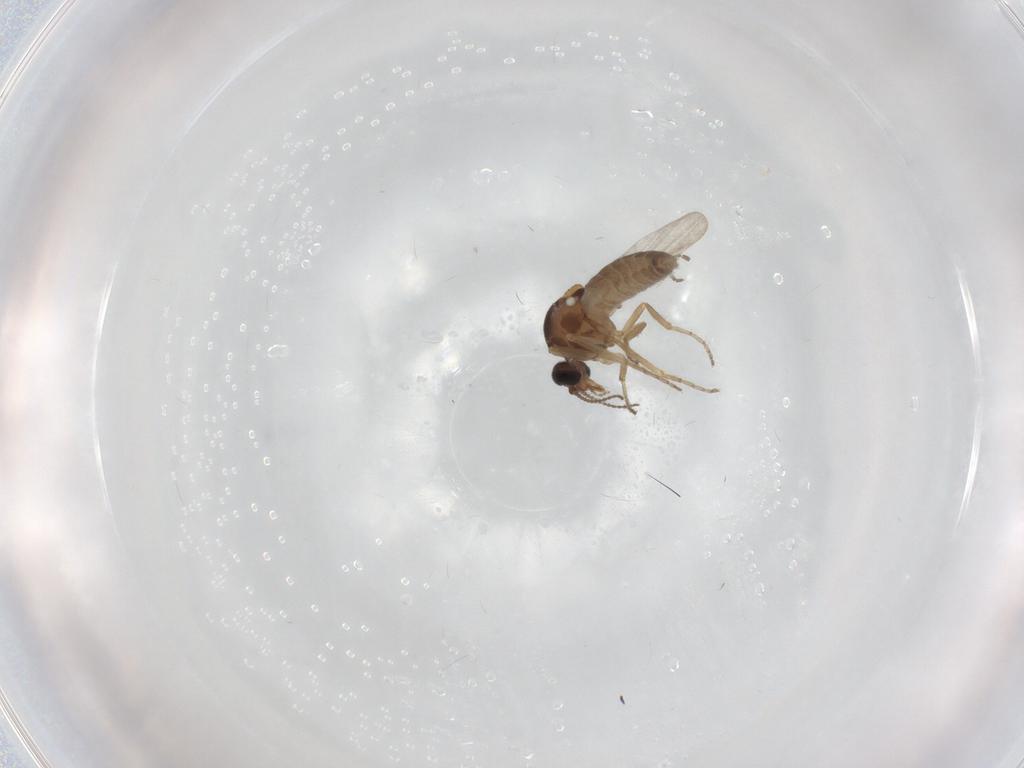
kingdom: Animalia
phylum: Arthropoda
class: Insecta
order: Diptera
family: Ceratopogonidae
